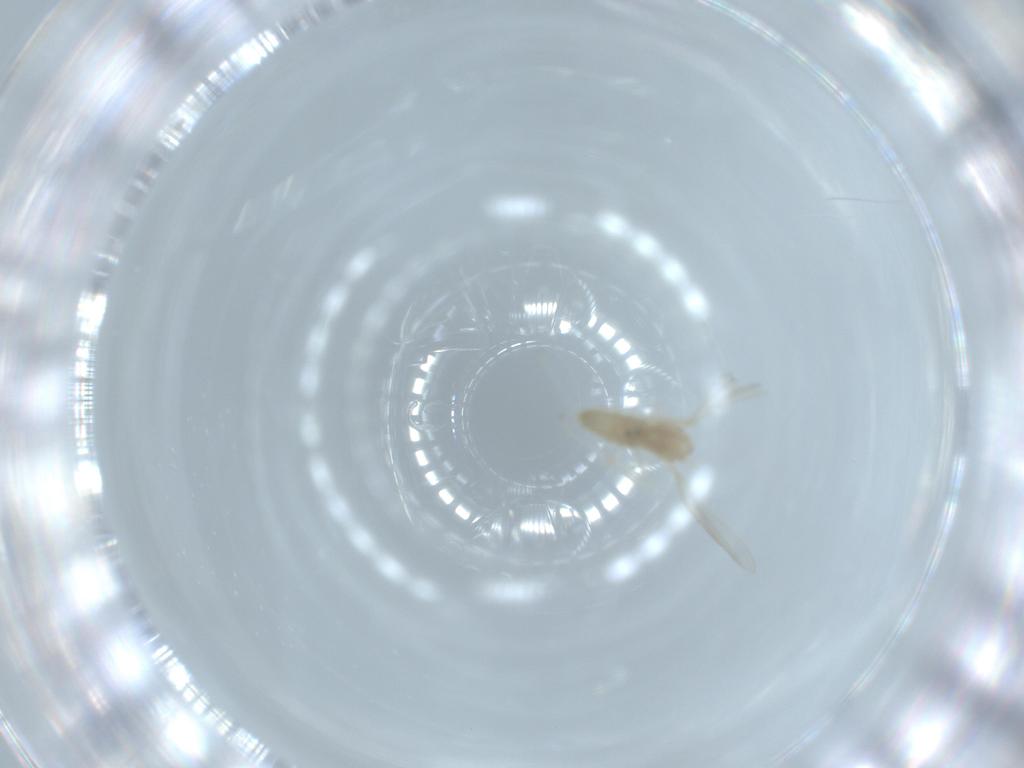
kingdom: Animalia
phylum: Arthropoda
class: Insecta
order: Diptera
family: Cecidomyiidae
